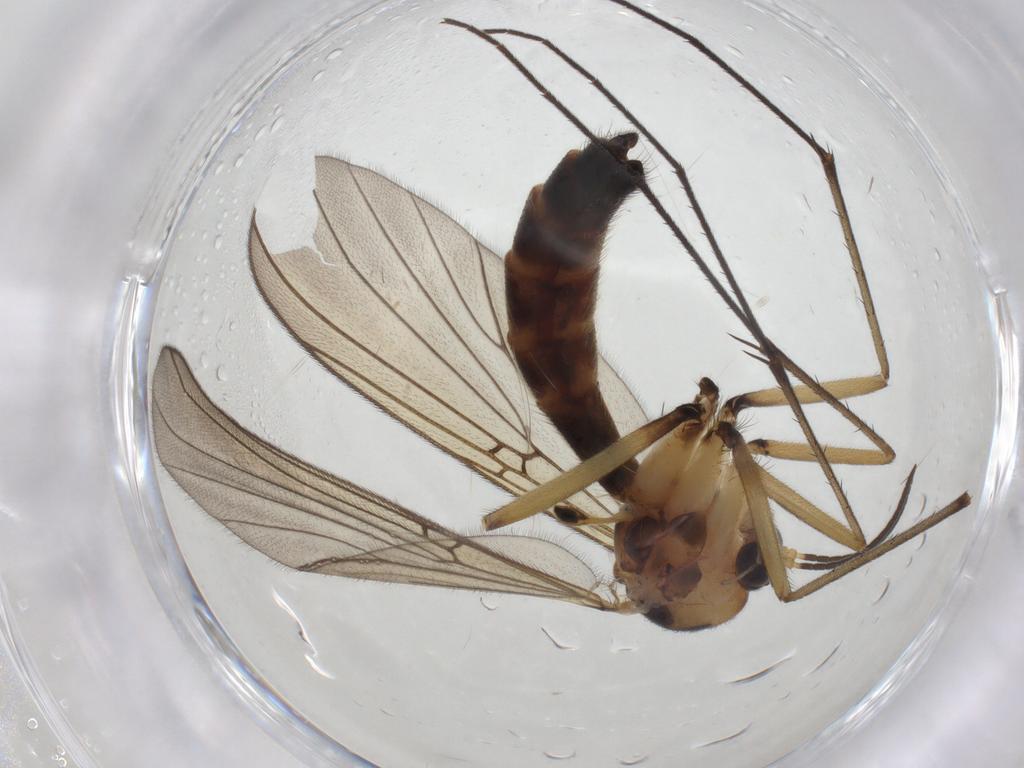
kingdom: Animalia
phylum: Arthropoda
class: Insecta
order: Diptera
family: Mycetophilidae
